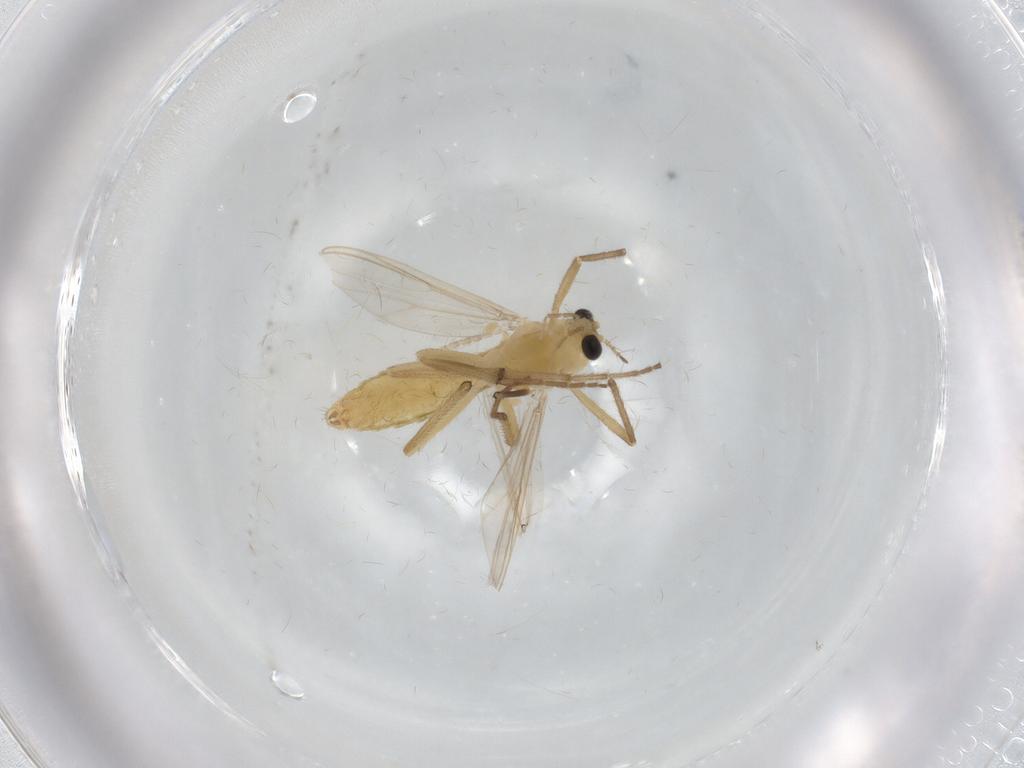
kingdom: Animalia
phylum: Arthropoda
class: Insecta
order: Diptera
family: Chironomidae
